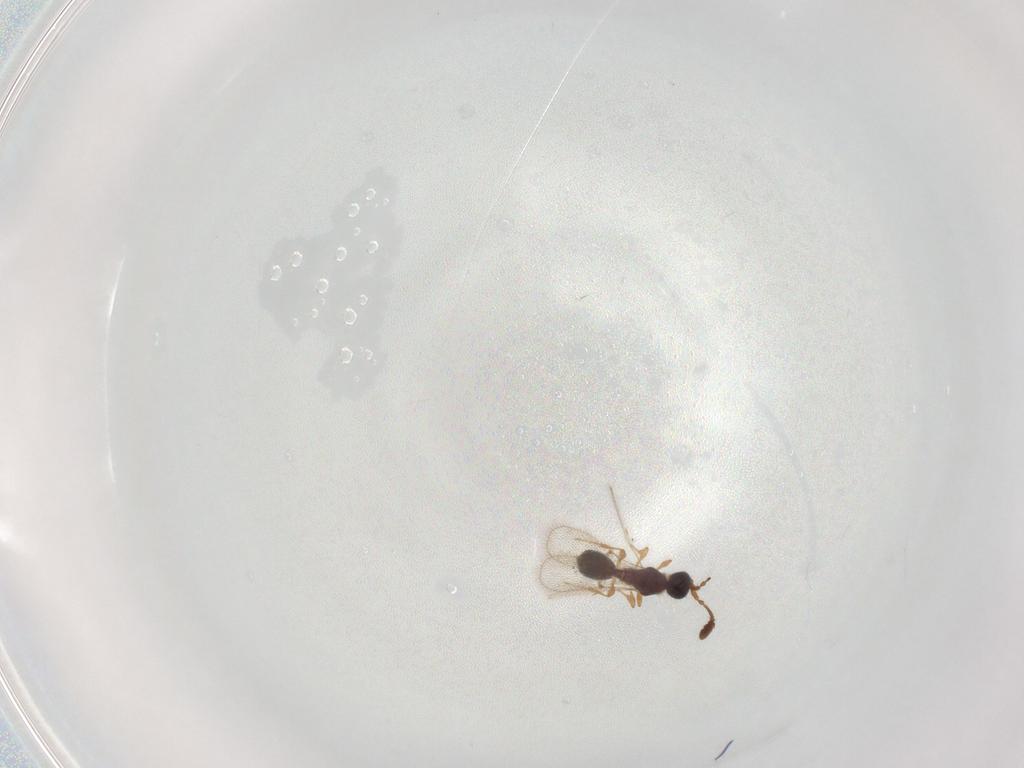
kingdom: Animalia
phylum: Arthropoda
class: Insecta
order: Hymenoptera
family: Diapriidae
